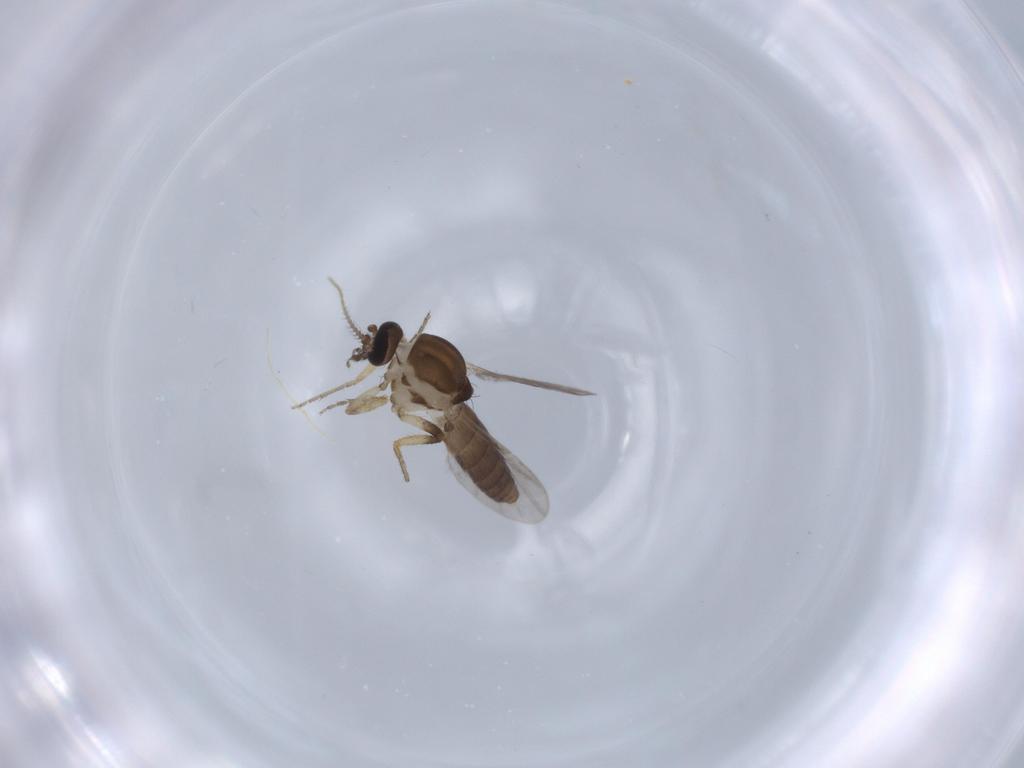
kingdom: Animalia
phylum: Arthropoda
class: Insecta
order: Diptera
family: Ceratopogonidae
